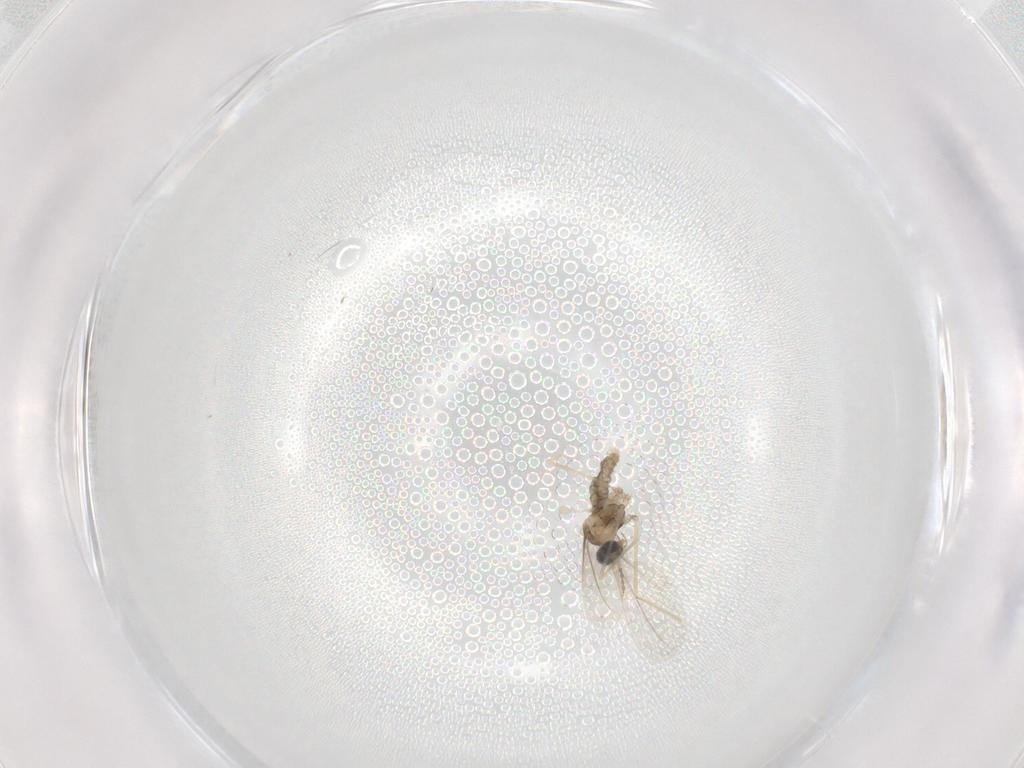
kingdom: Animalia
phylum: Arthropoda
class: Insecta
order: Diptera
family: Cecidomyiidae
